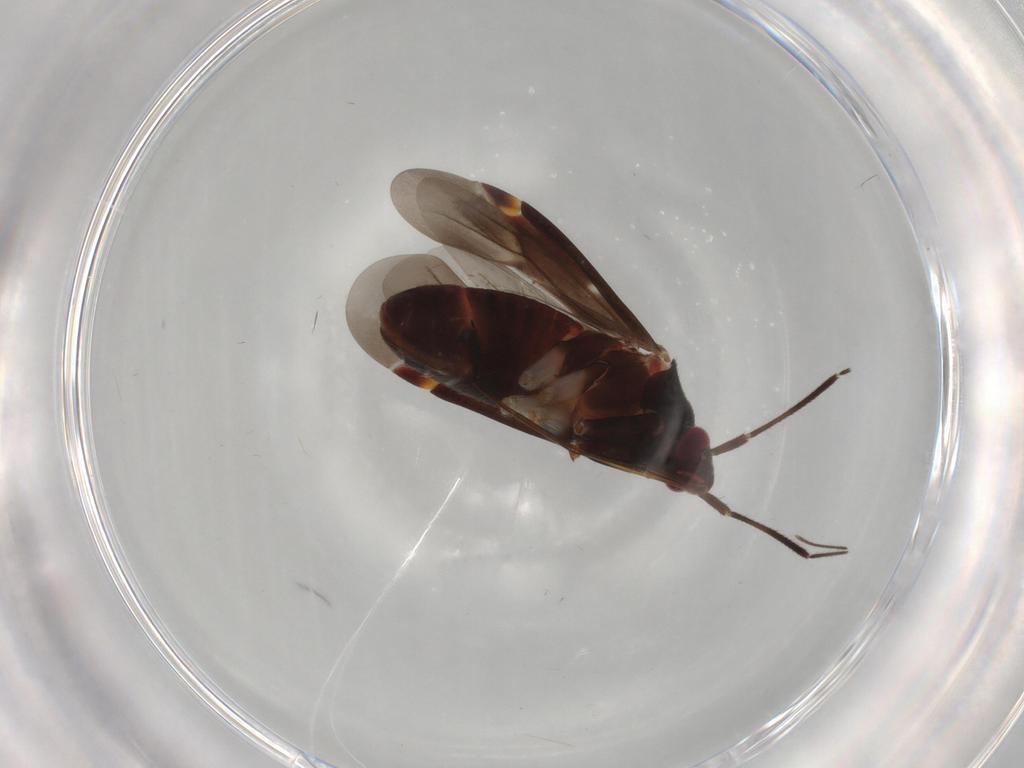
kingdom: Animalia
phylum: Arthropoda
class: Insecta
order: Hemiptera
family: Miridae
